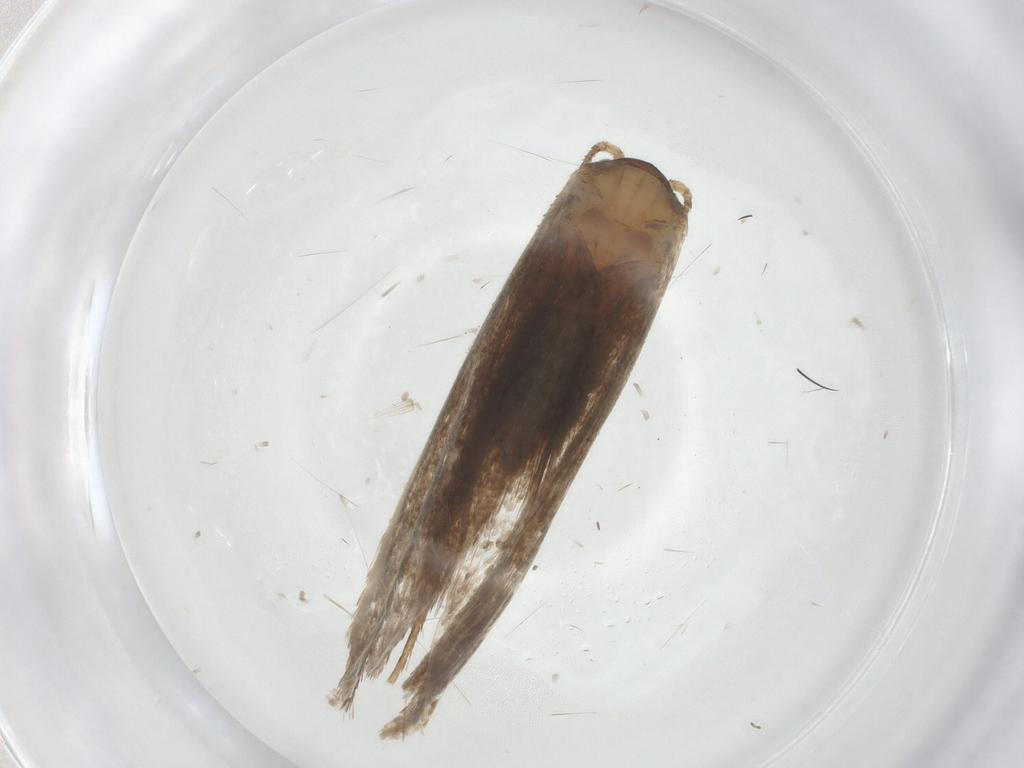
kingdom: Animalia
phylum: Arthropoda
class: Insecta
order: Lepidoptera
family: Dryadaulidae
